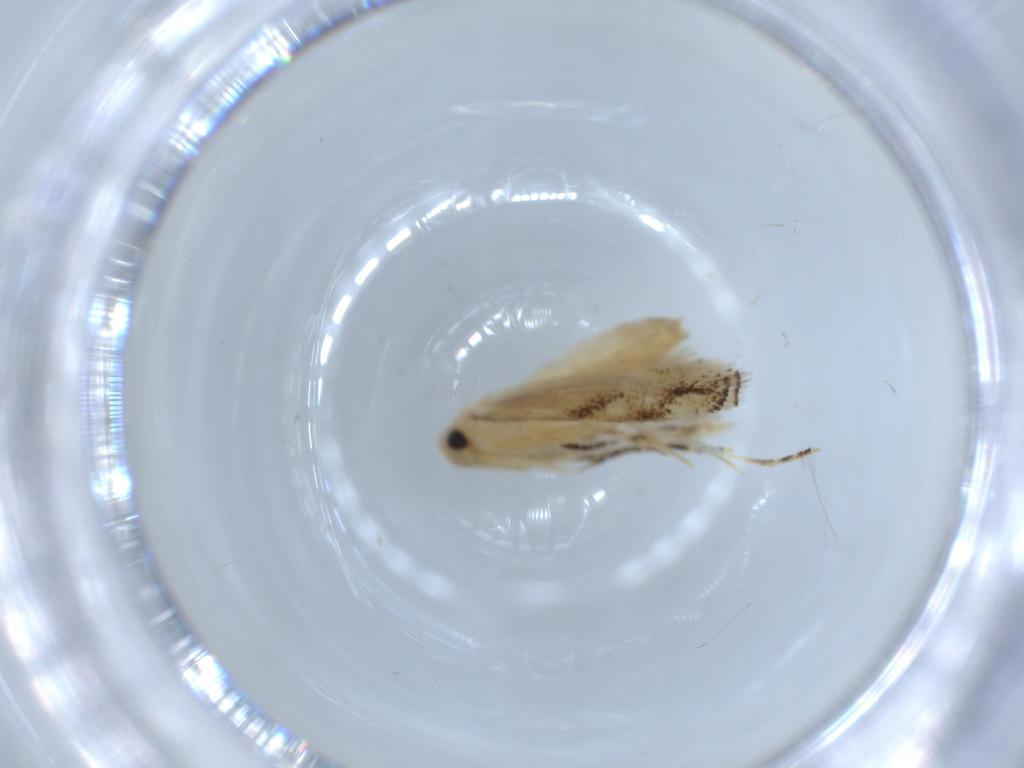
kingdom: Animalia
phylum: Arthropoda
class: Insecta
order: Lepidoptera
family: Bucculatricidae
